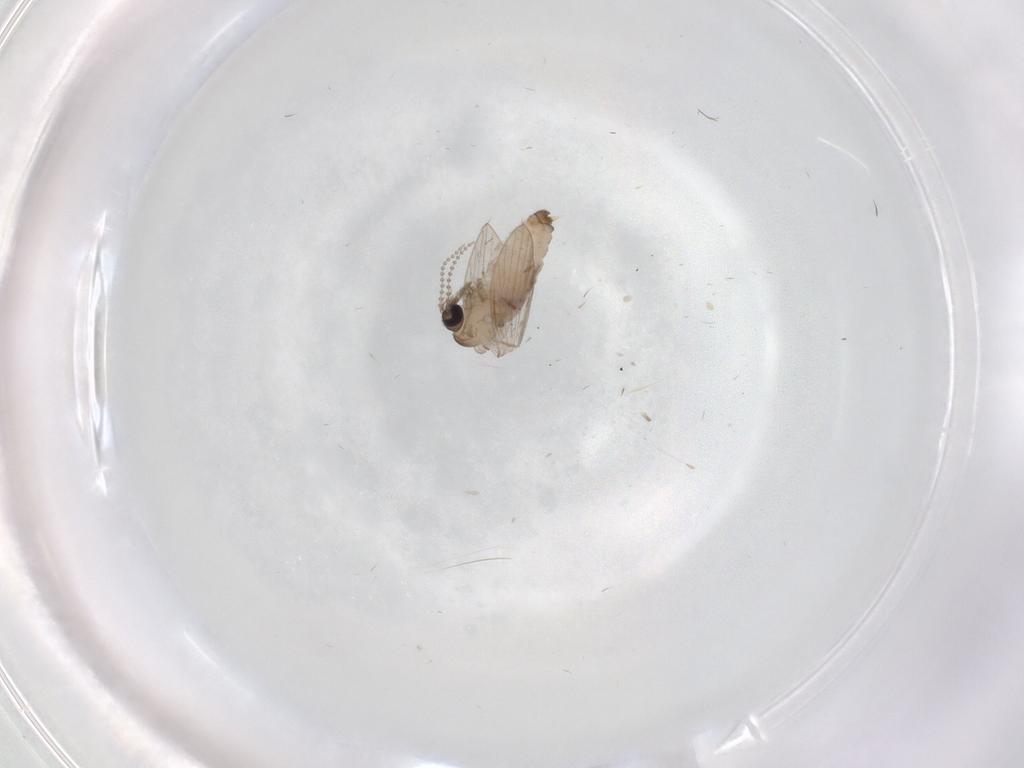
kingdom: Animalia
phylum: Arthropoda
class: Insecta
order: Diptera
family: Psychodidae
